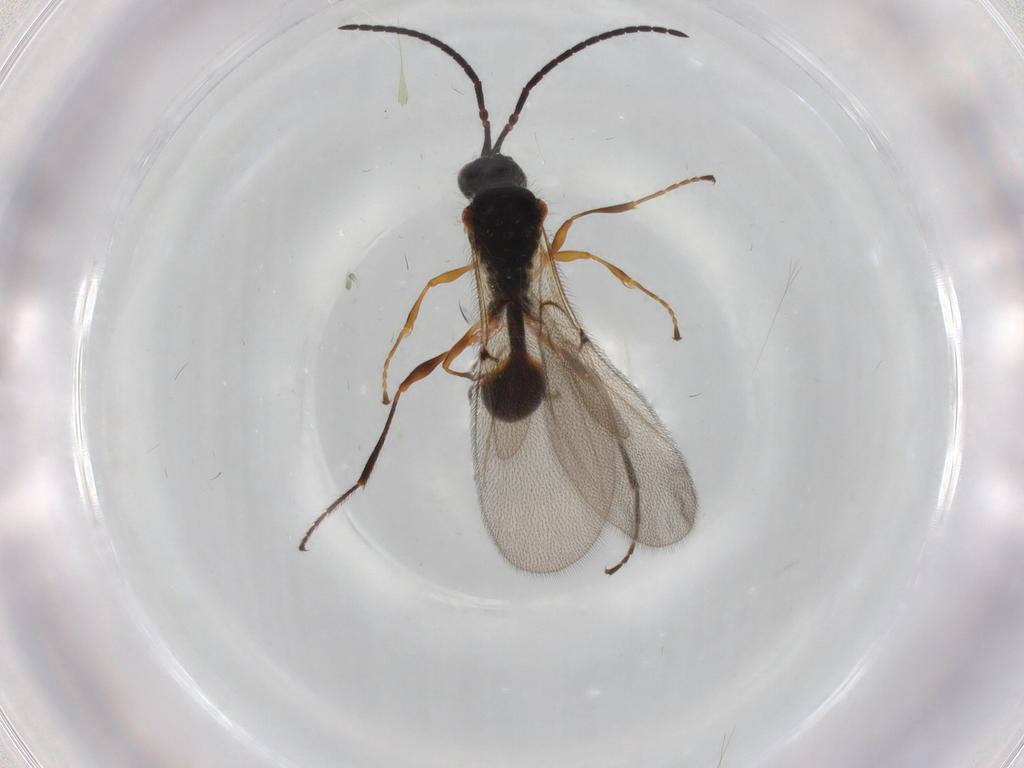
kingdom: Animalia
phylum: Arthropoda
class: Insecta
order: Hymenoptera
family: Diapriidae
